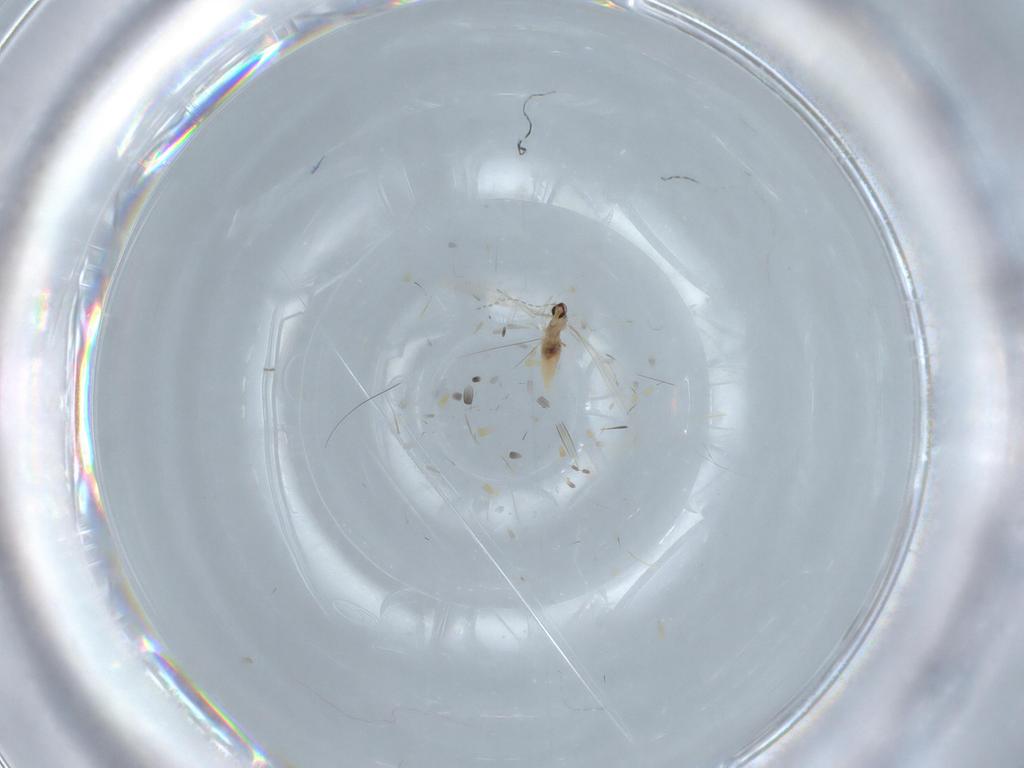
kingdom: Animalia
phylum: Arthropoda
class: Insecta
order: Diptera
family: Cecidomyiidae
